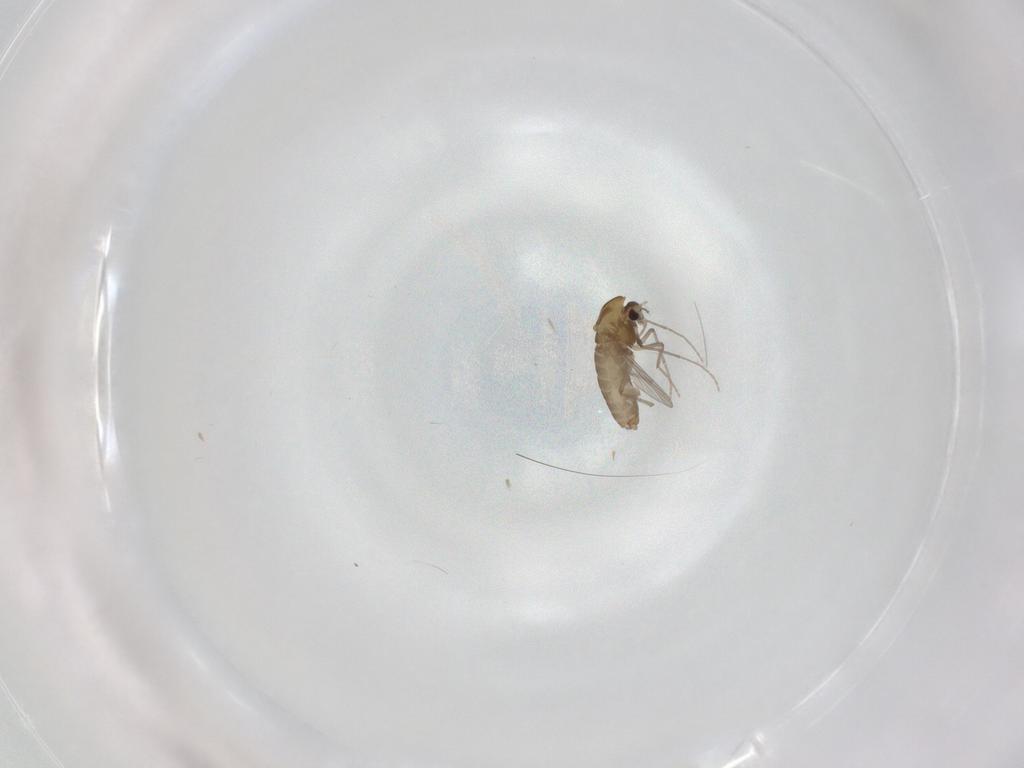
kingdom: Animalia
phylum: Arthropoda
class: Insecta
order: Diptera
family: Chironomidae
